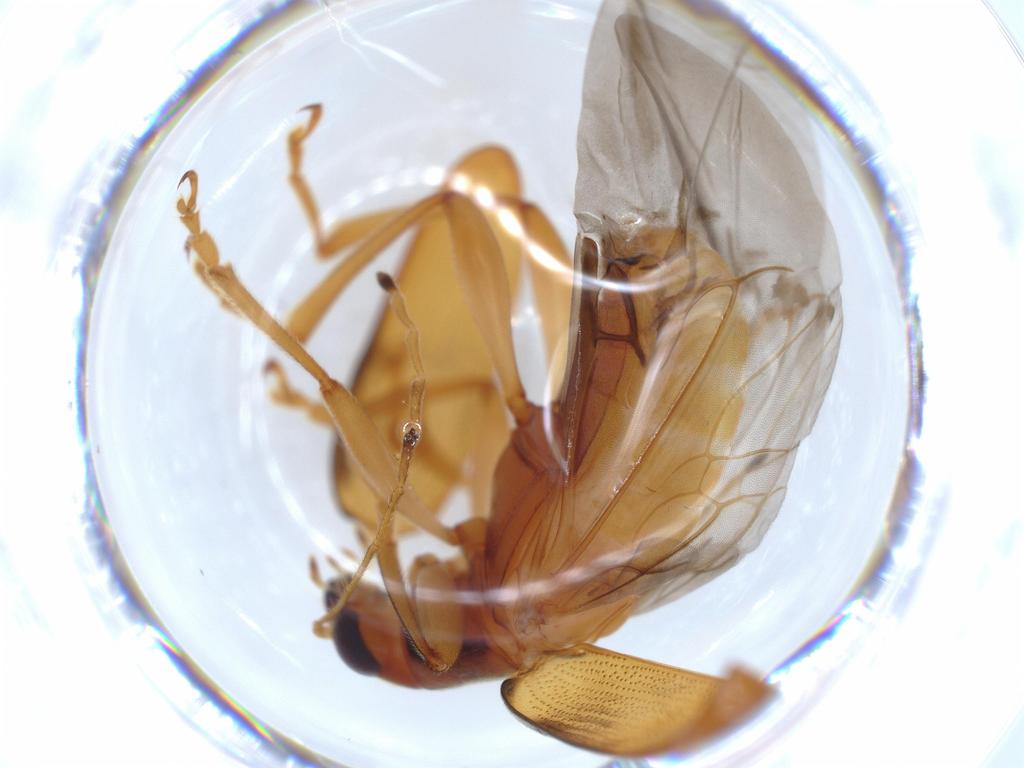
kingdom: Animalia
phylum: Arthropoda
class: Insecta
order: Coleoptera
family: Chrysomelidae
